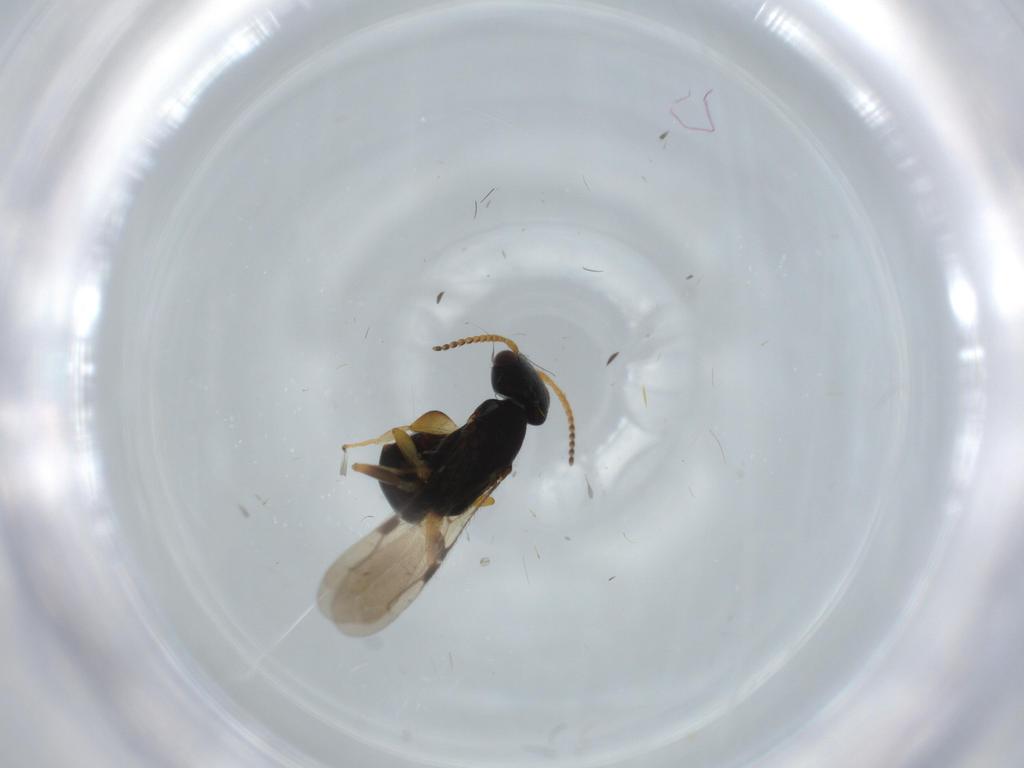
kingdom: Animalia
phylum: Arthropoda
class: Insecta
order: Hymenoptera
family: Bethylidae
